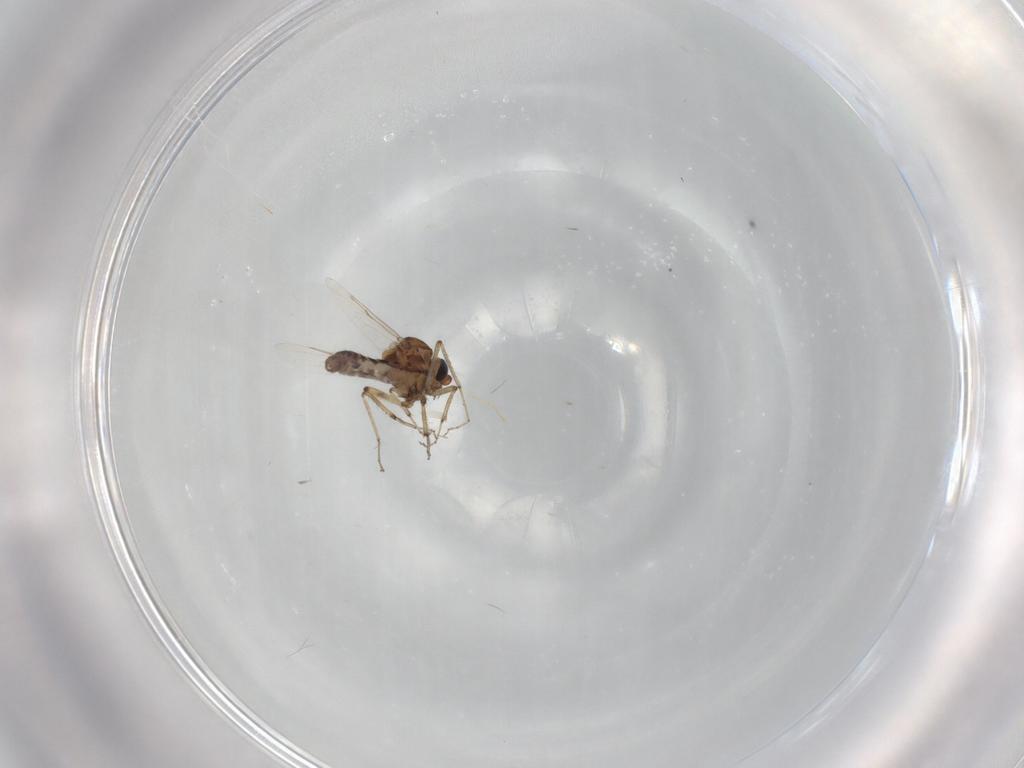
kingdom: Animalia
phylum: Arthropoda
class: Insecta
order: Diptera
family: Ceratopogonidae
